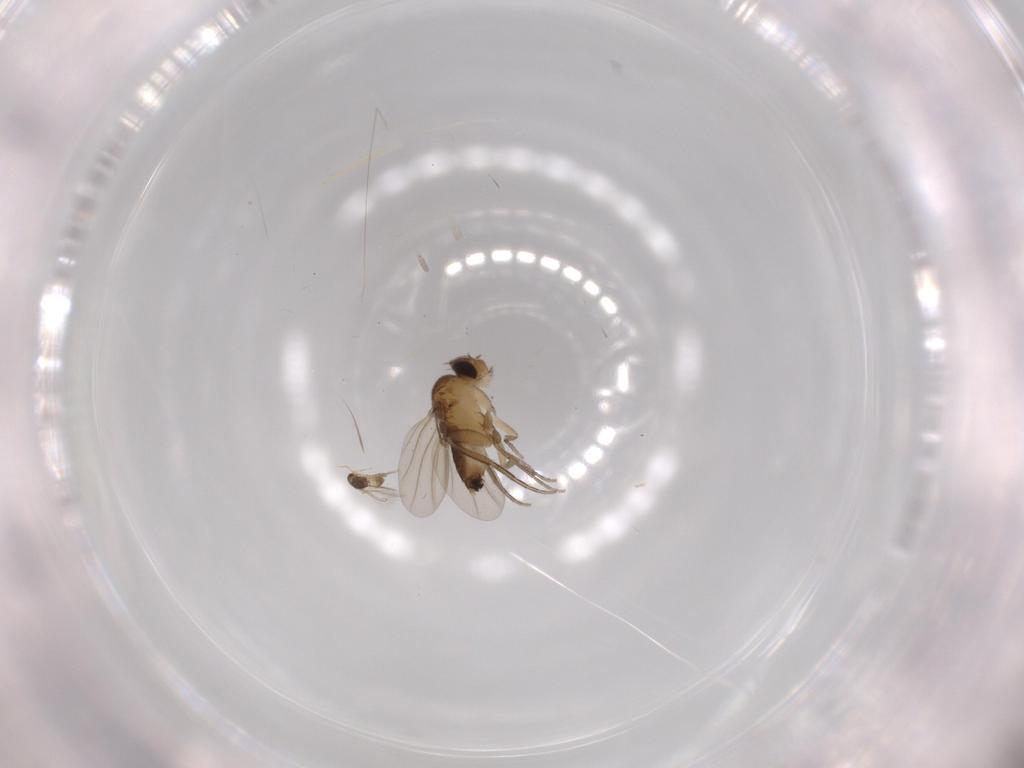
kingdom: Animalia
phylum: Arthropoda
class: Insecta
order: Diptera
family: Phoridae
